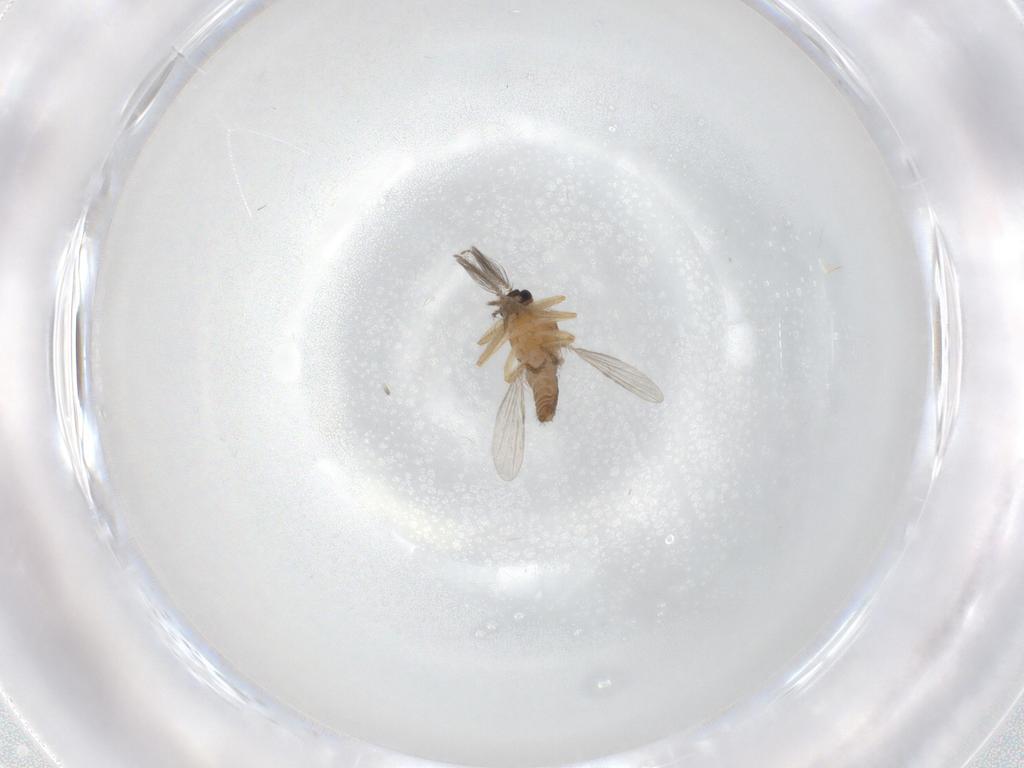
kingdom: Animalia
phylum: Arthropoda
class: Insecta
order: Diptera
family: Ceratopogonidae
